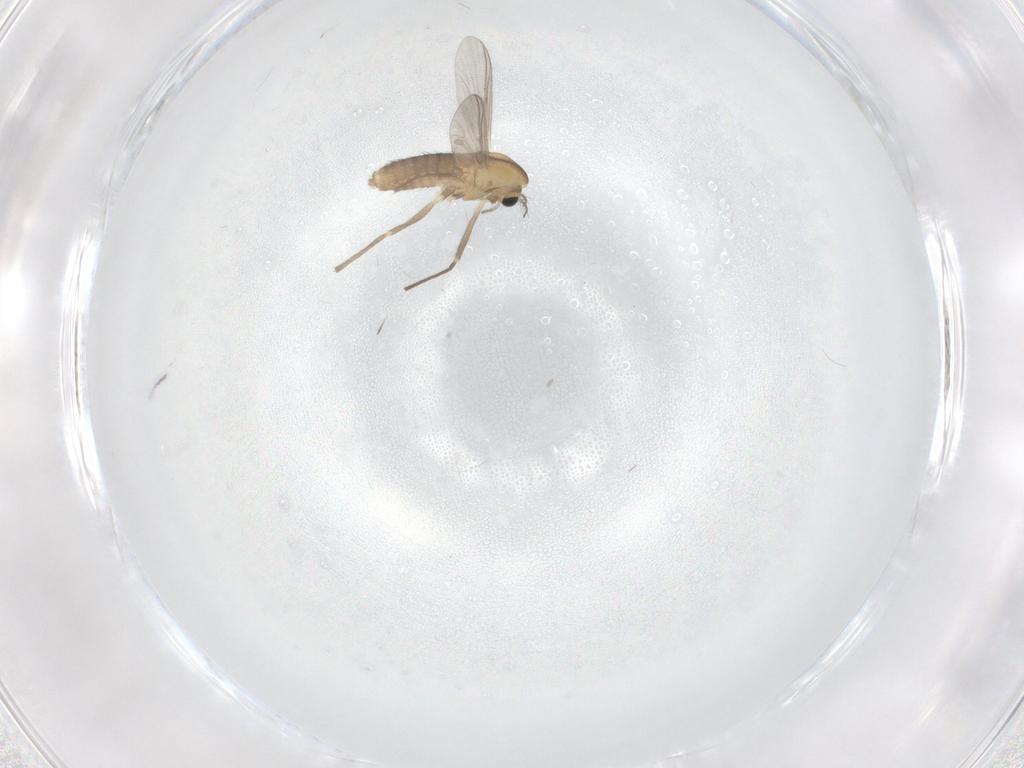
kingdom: Animalia
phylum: Arthropoda
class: Insecta
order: Diptera
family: Chironomidae
